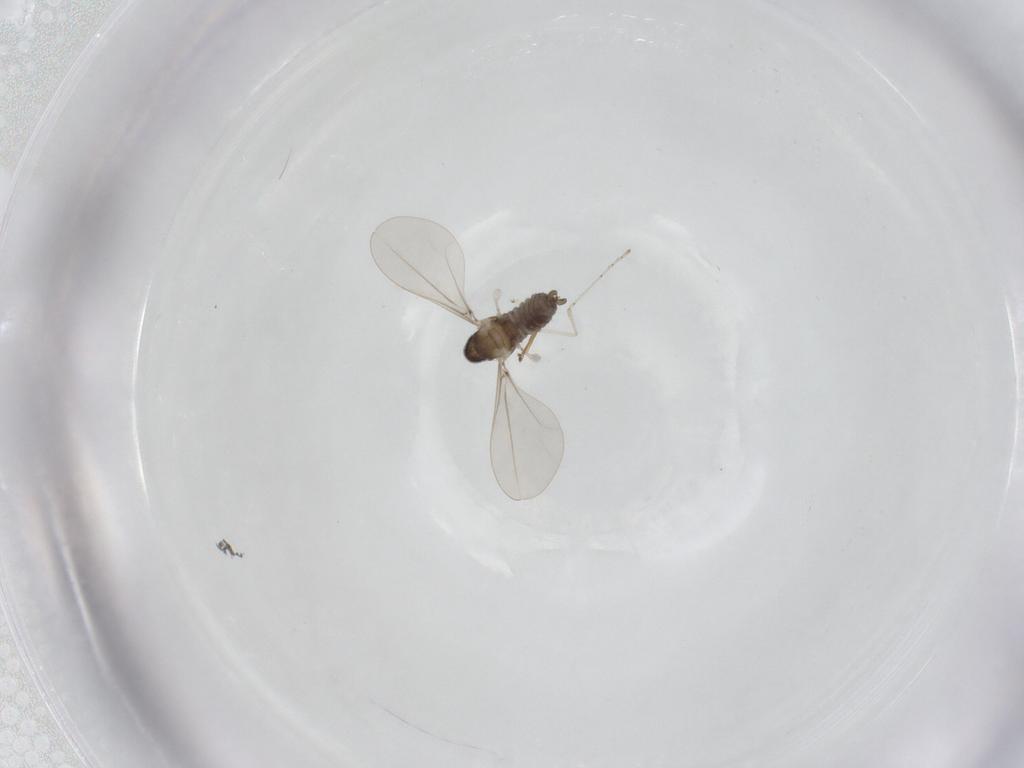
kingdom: Animalia
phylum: Arthropoda
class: Insecta
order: Diptera
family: Cecidomyiidae
